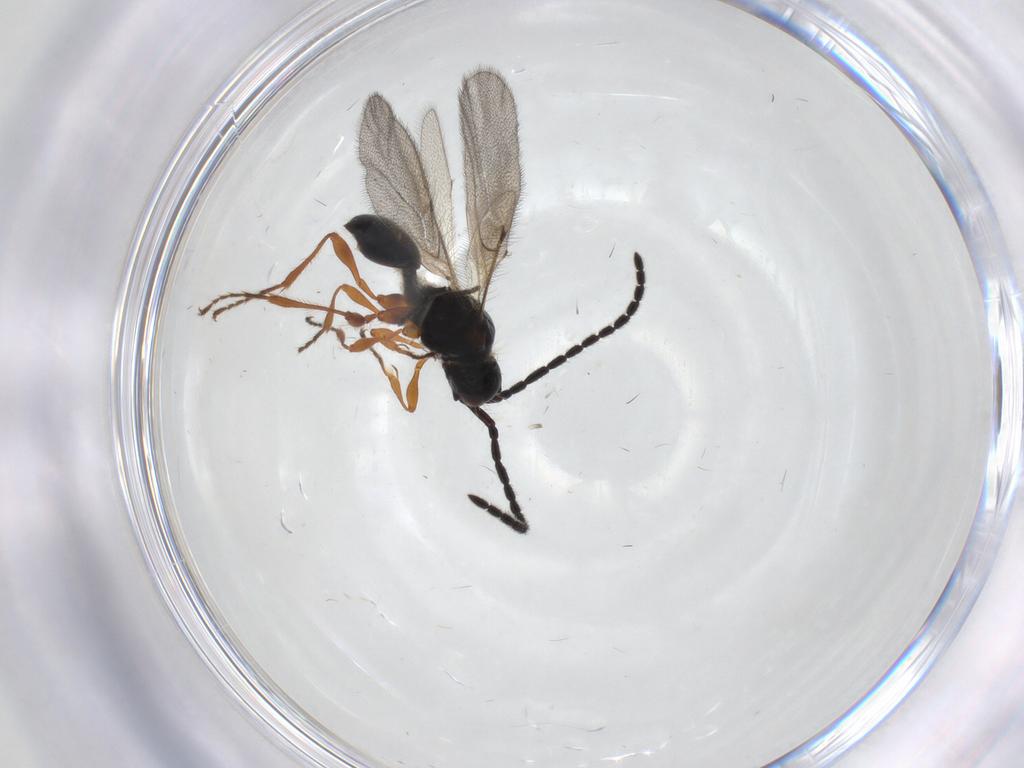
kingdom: Animalia
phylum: Arthropoda
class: Insecta
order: Hymenoptera
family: Diapriidae
